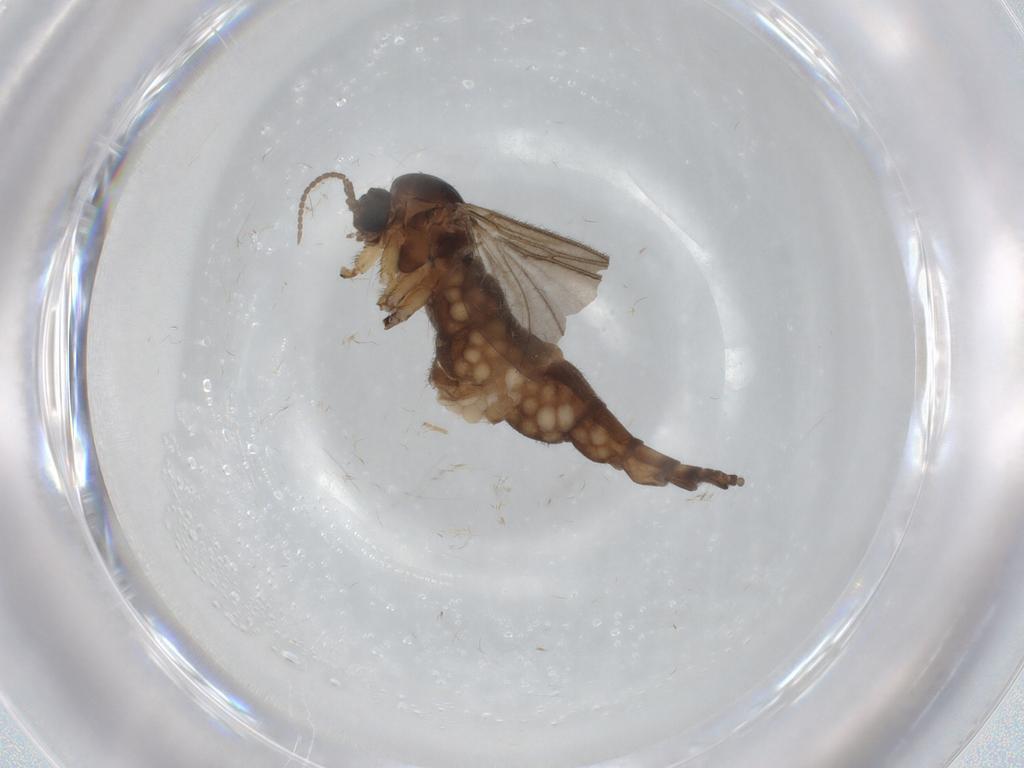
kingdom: Animalia
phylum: Arthropoda
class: Insecta
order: Diptera
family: Sciaridae
